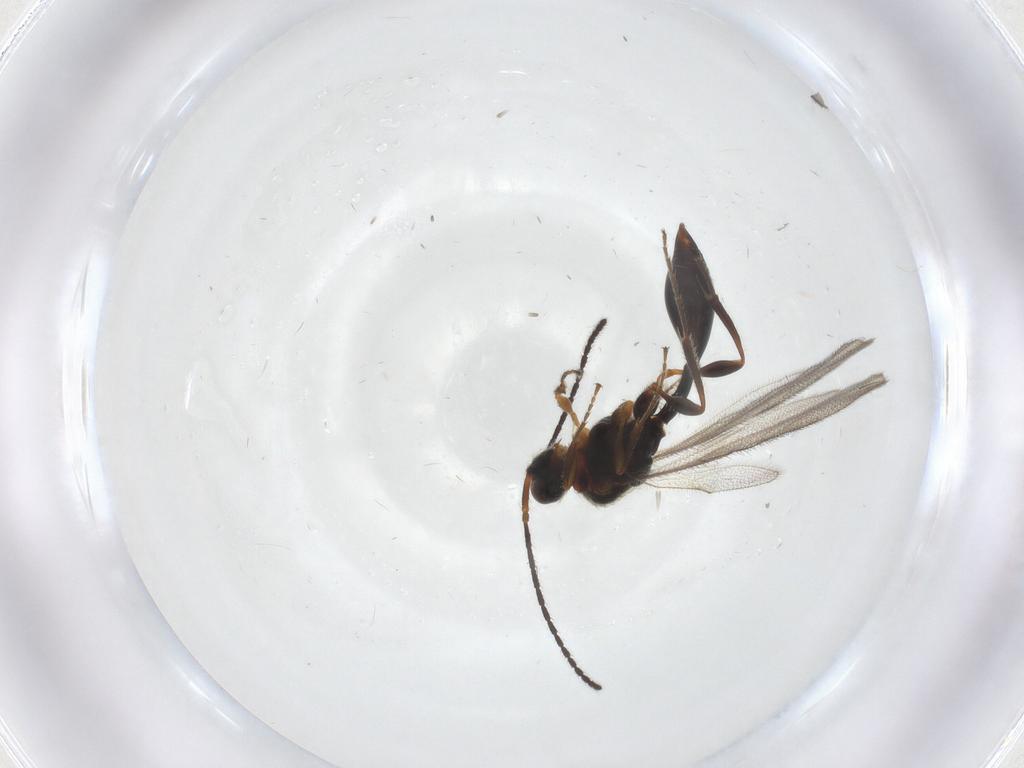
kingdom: Animalia
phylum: Arthropoda
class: Insecta
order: Hymenoptera
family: Diapriidae
